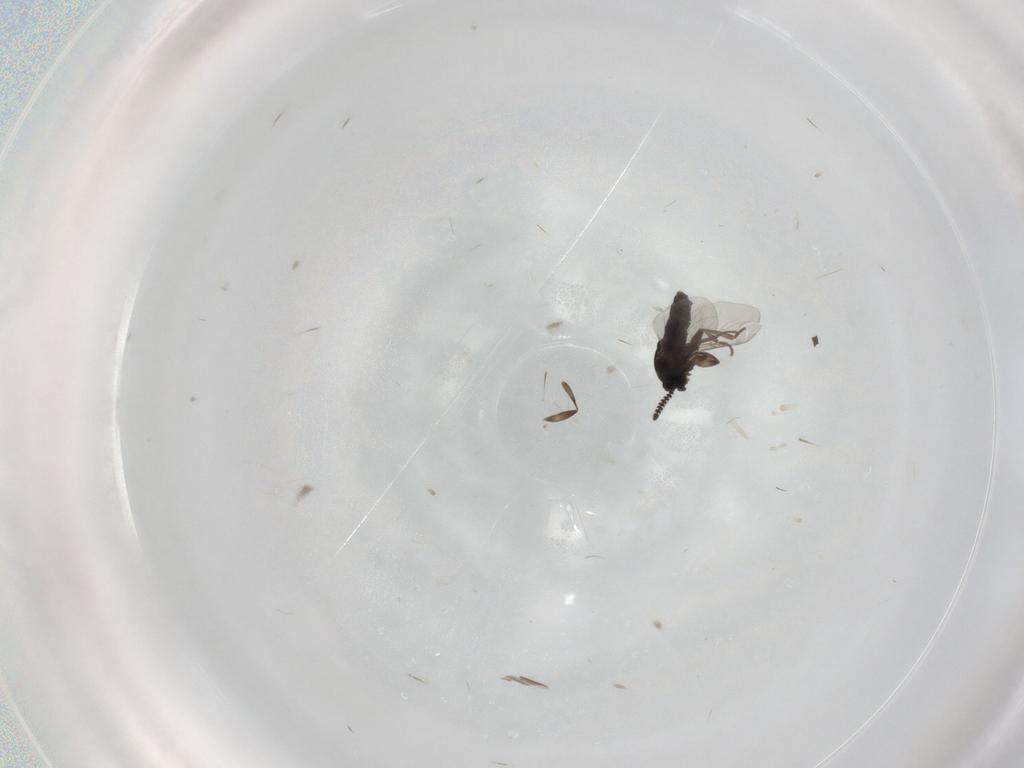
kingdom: Animalia
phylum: Arthropoda
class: Insecta
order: Diptera
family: Scatopsidae
